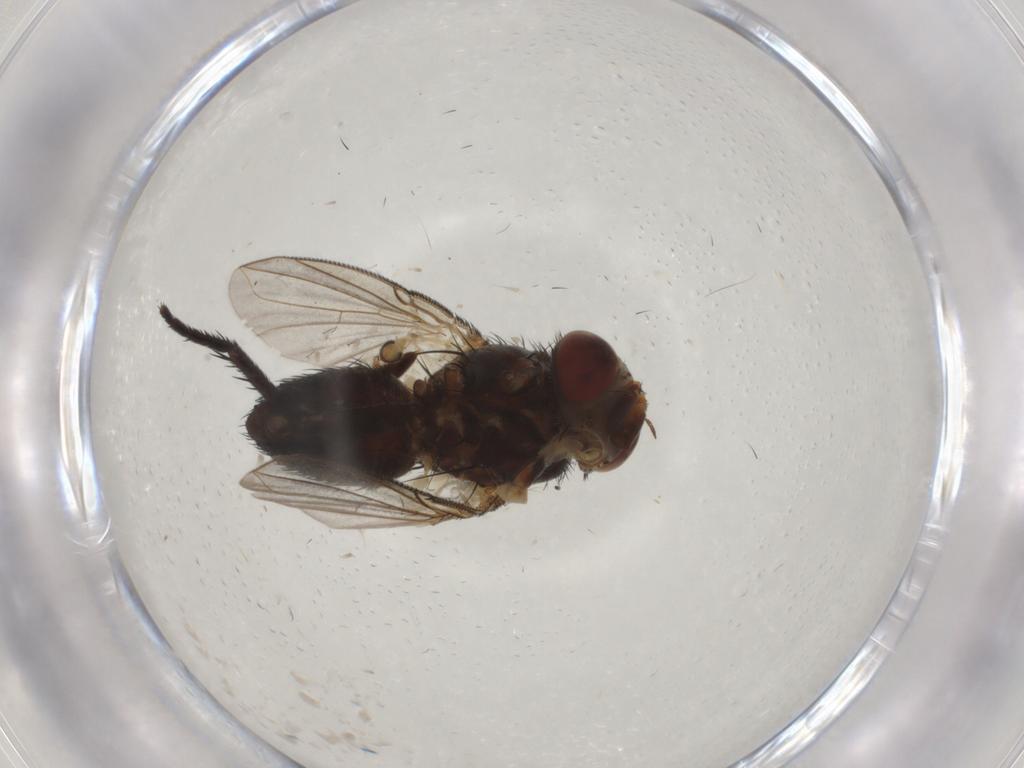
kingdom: Animalia
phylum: Arthropoda
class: Insecta
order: Diptera
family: Tachinidae
